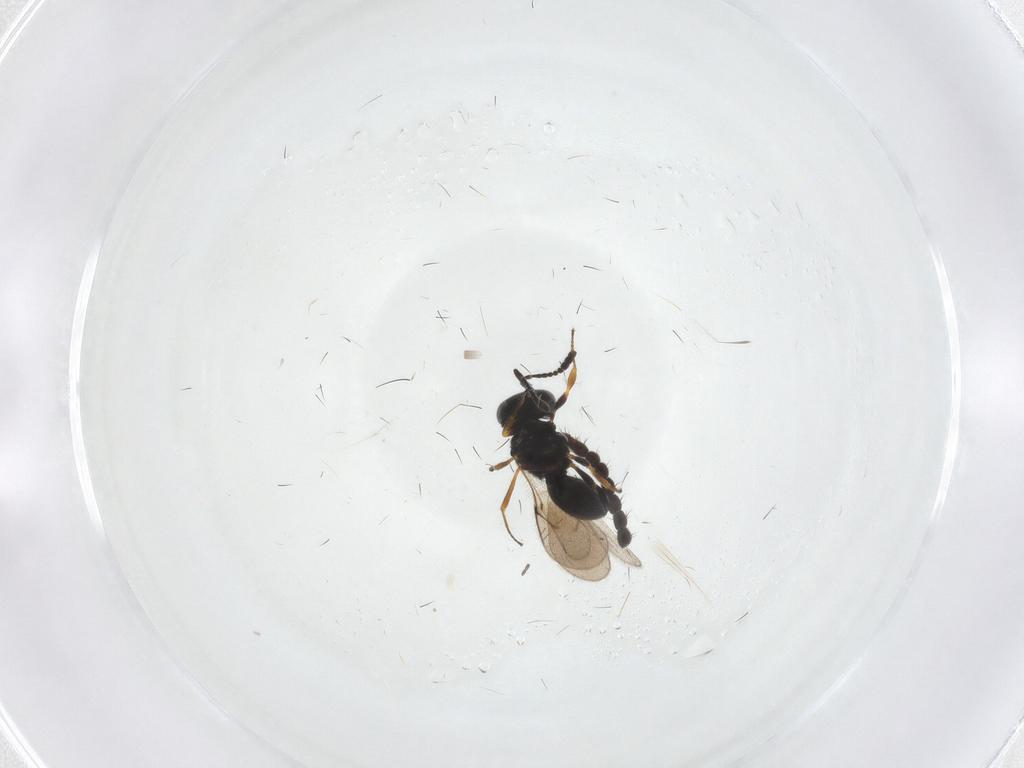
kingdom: Animalia
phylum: Arthropoda
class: Insecta
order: Hymenoptera
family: Scelionidae
